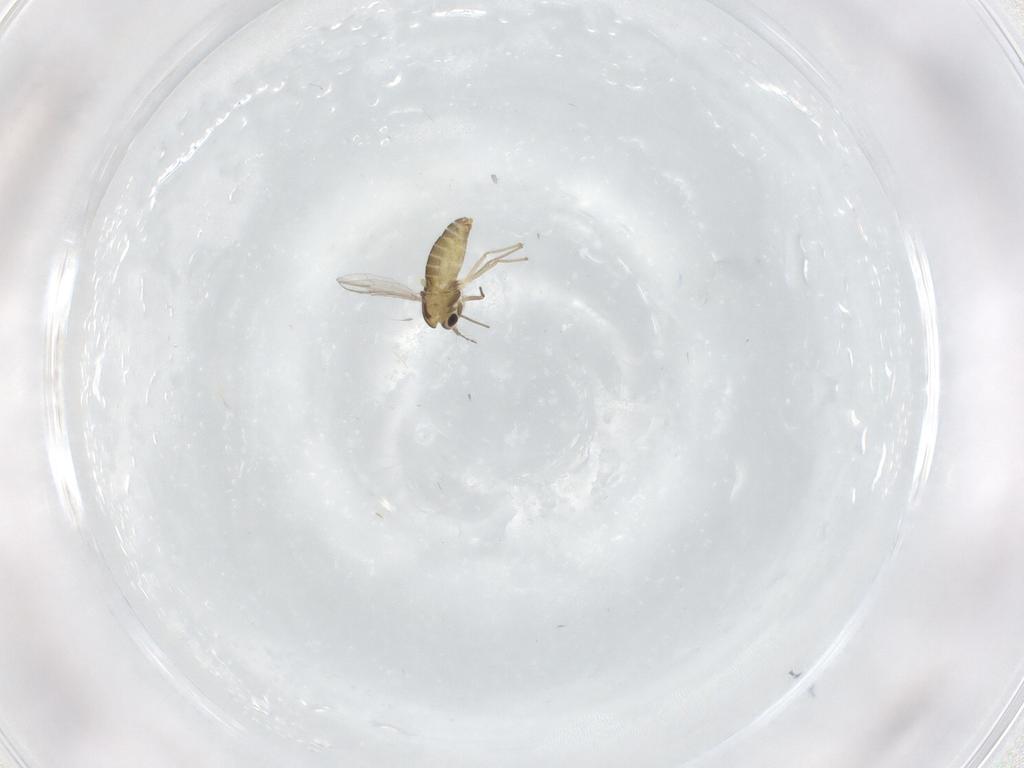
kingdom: Animalia
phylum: Arthropoda
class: Insecta
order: Diptera
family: Chironomidae
